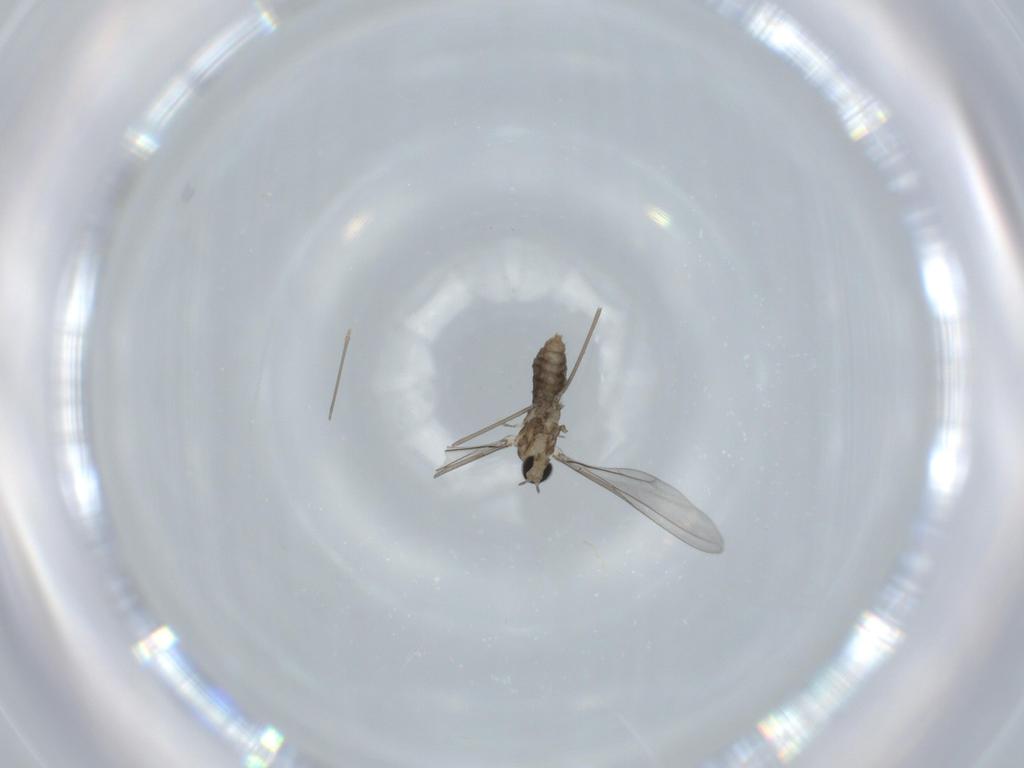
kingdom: Animalia
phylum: Arthropoda
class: Insecta
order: Diptera
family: Cecidomyiidae
